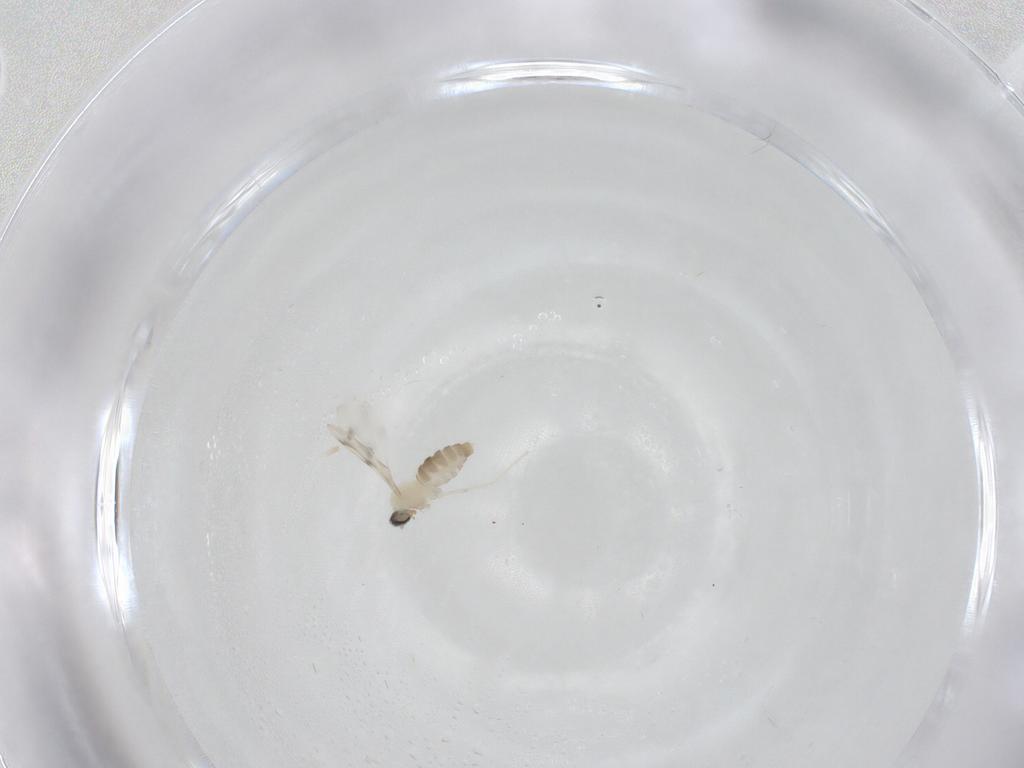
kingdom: Animalia
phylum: Arthropoda
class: Insecta
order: Diptera
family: Cecidomyiidae
